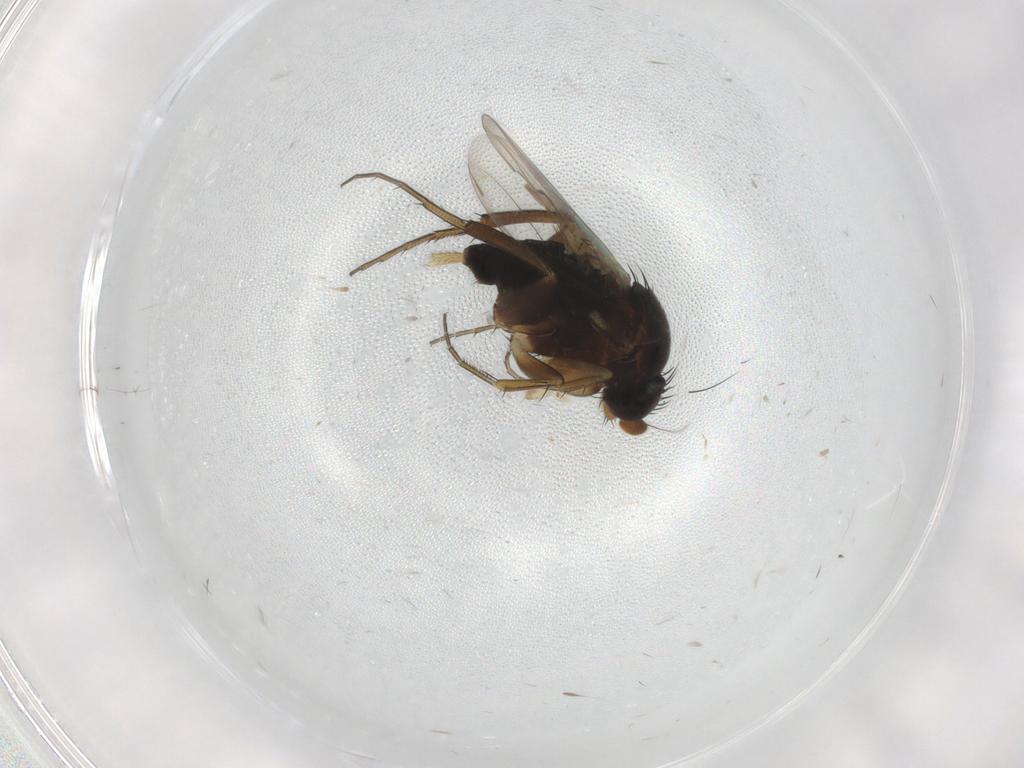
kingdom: Animalia
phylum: Arthropoda
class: Insecta
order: Diptera
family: Phoridae
